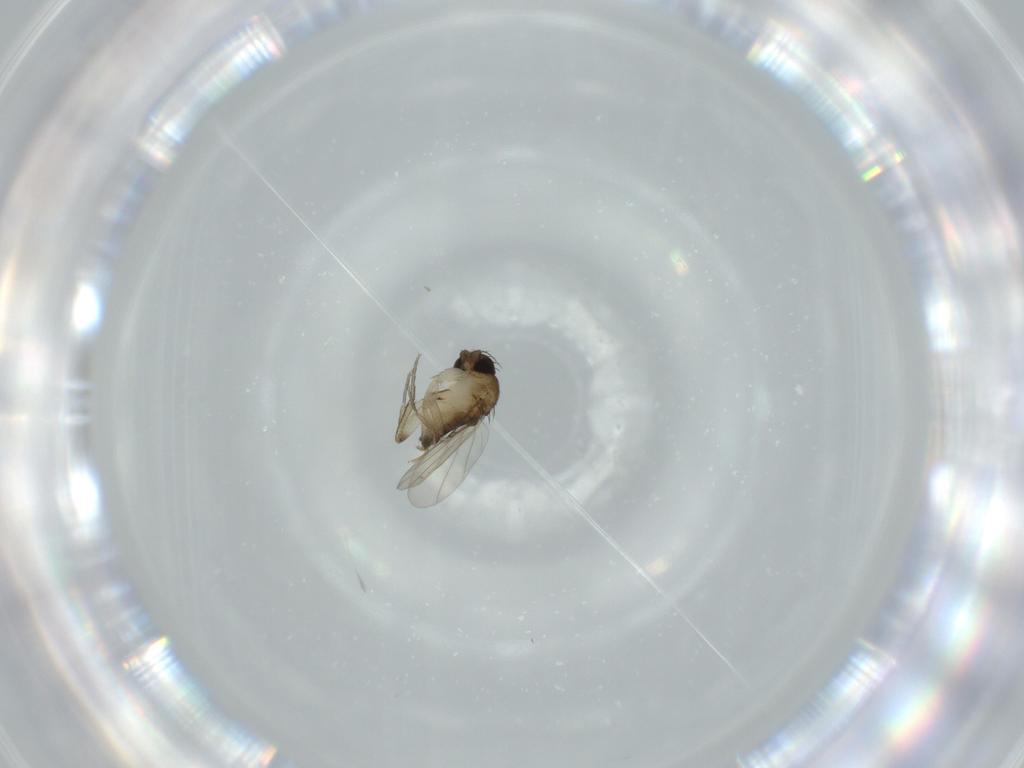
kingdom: Animalia
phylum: Arthropoda
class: Insecta
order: Diptera
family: Phoridae
